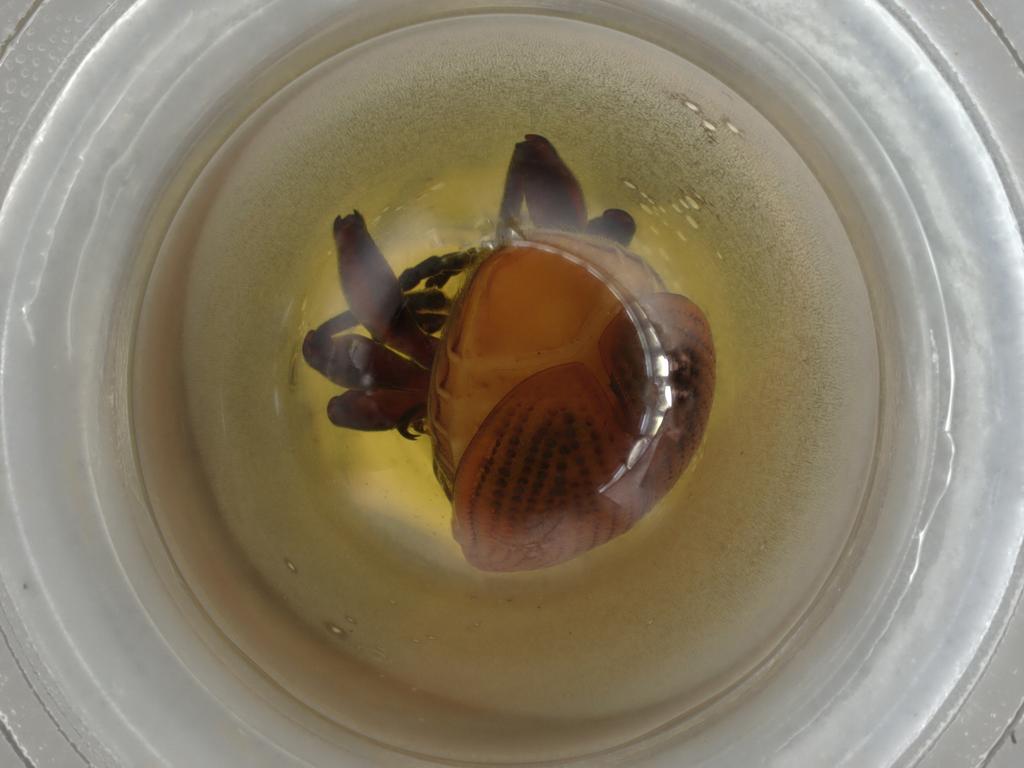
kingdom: Animalia
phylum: Arthropoda
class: Insecta
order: Coleoptera
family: Chrysomelidae
